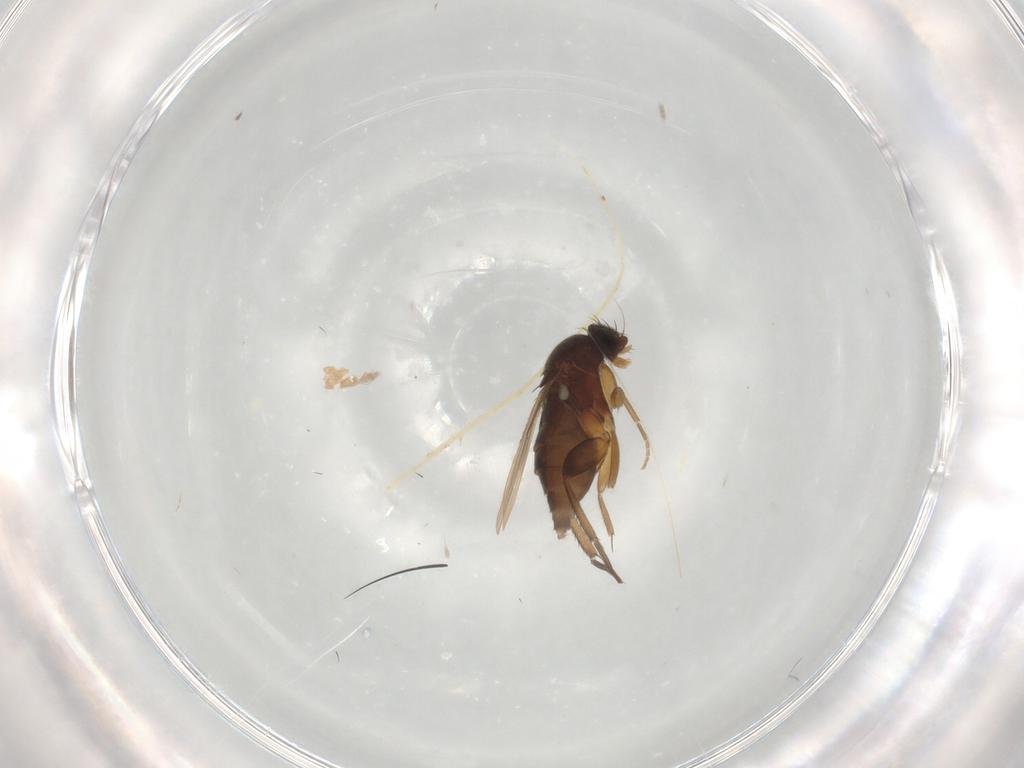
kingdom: Animalia
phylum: Arthropoda
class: Insecta
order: Diptera
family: Phoridae
